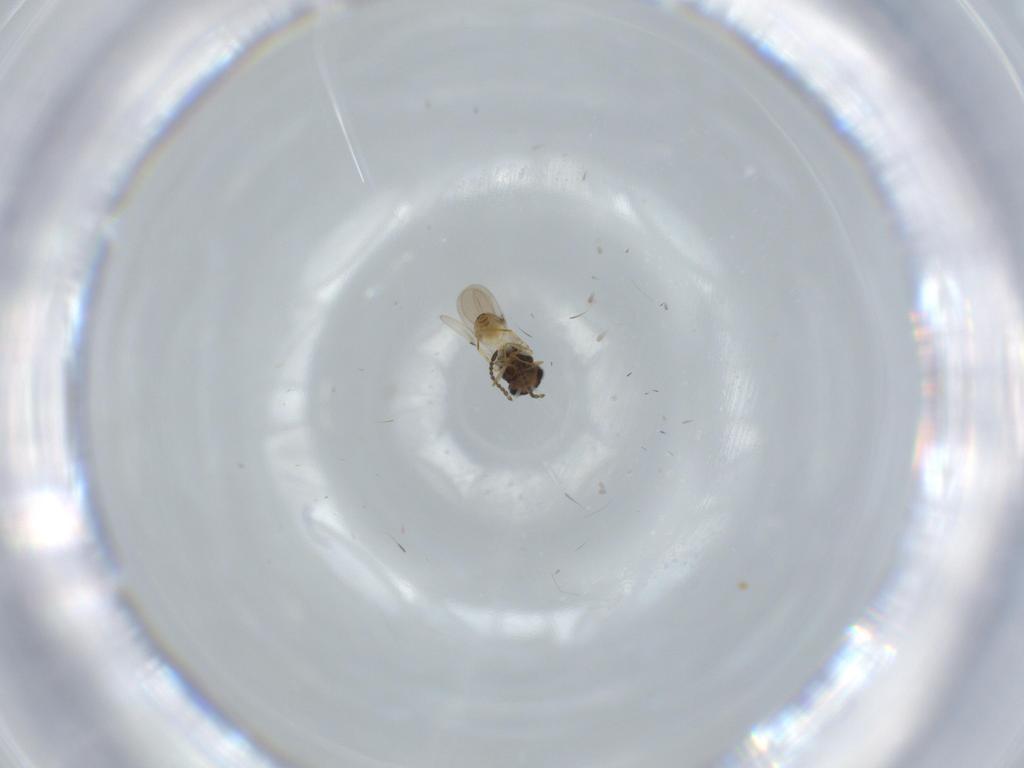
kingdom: Animalia
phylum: Arthropoda
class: Insecta
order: Hymenoptera
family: Scelionidae
